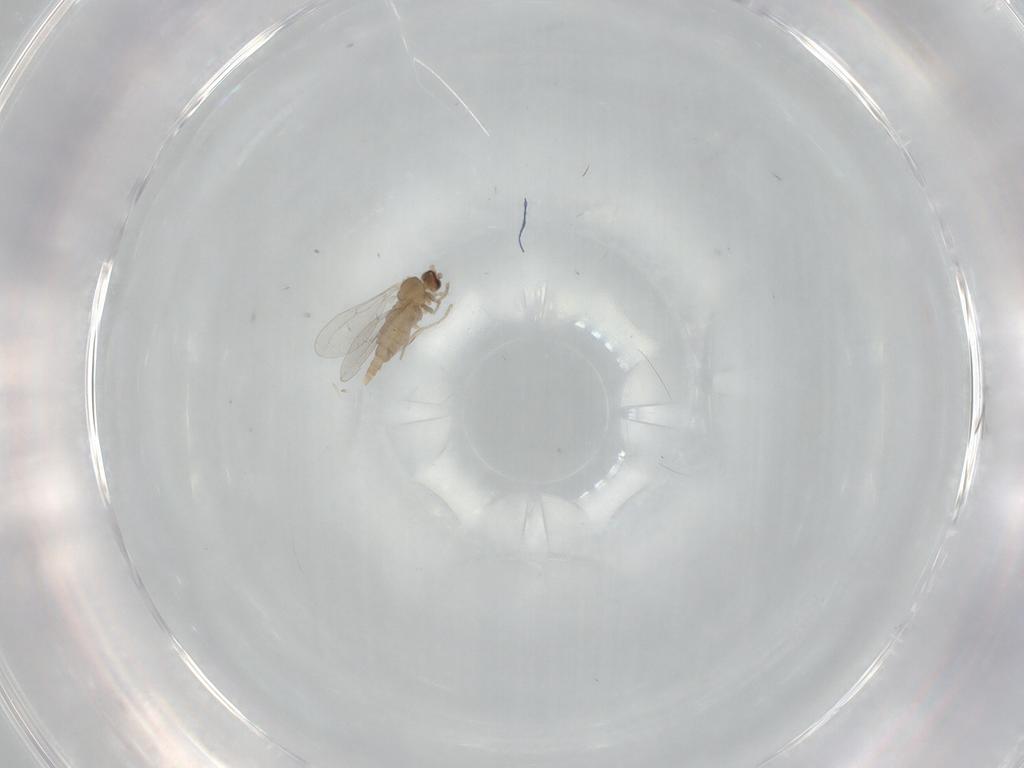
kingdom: Animalia
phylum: Arthropoda
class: Insecta
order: Diptera
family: Cecidomyiidae
